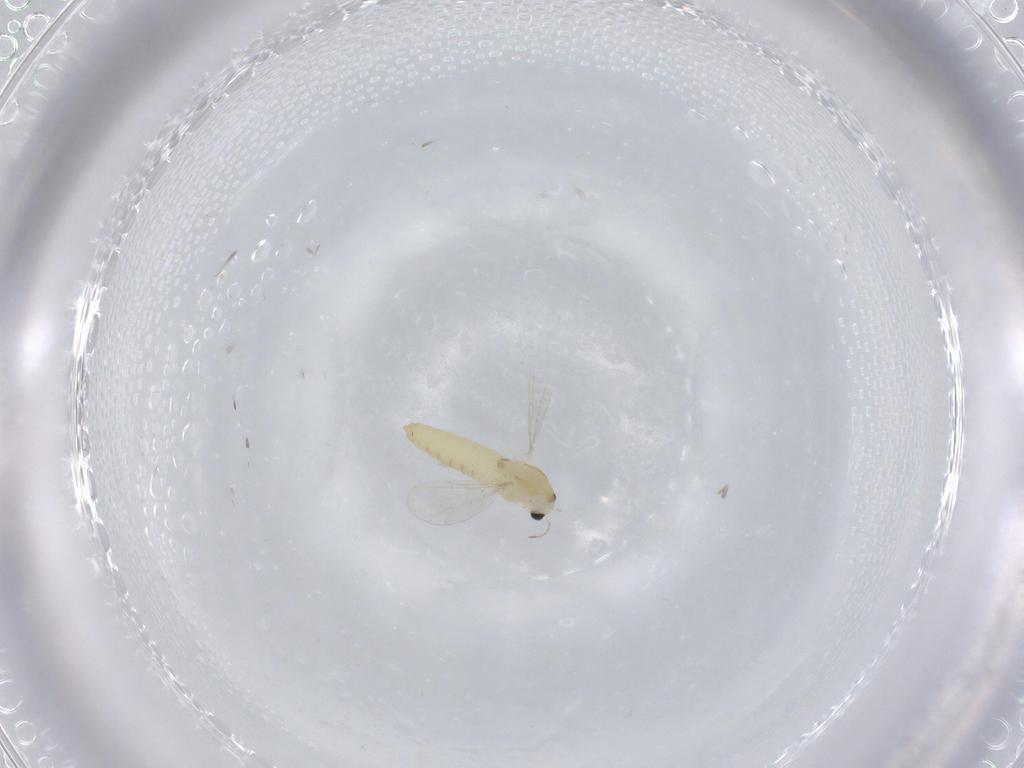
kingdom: Animalia
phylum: Arthropoda
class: Insecta
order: Diptera
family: Chironomidae
